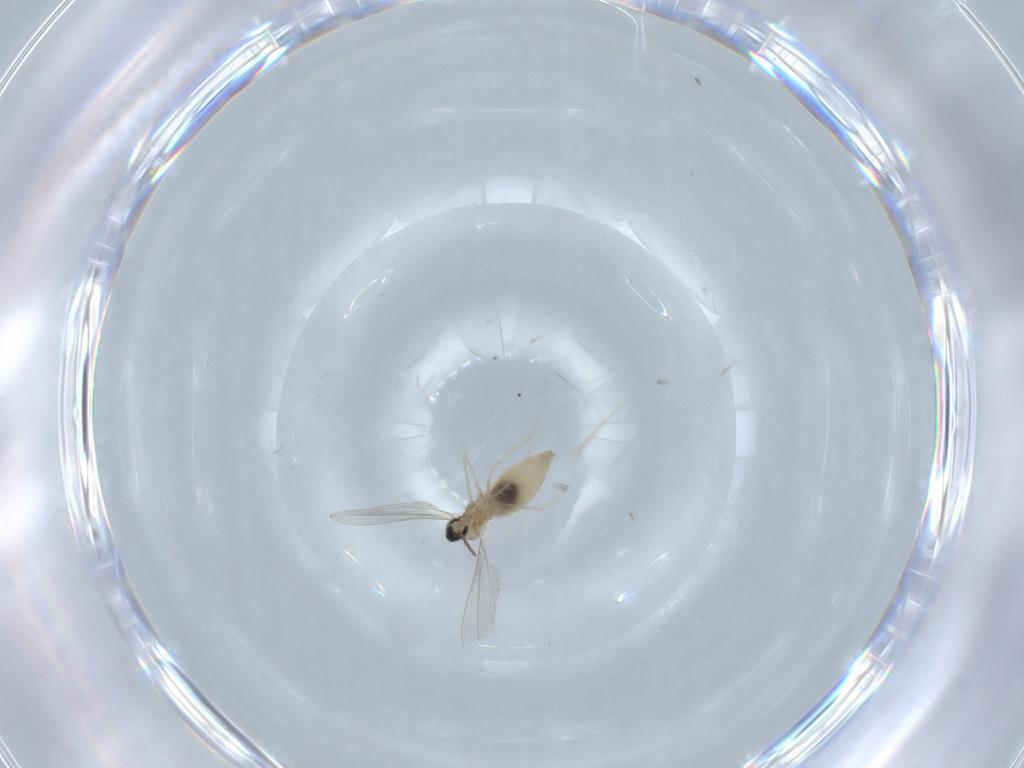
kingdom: Animalia
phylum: Arthropoda
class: Insecta
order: Diptera
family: Cecidomyiidae
